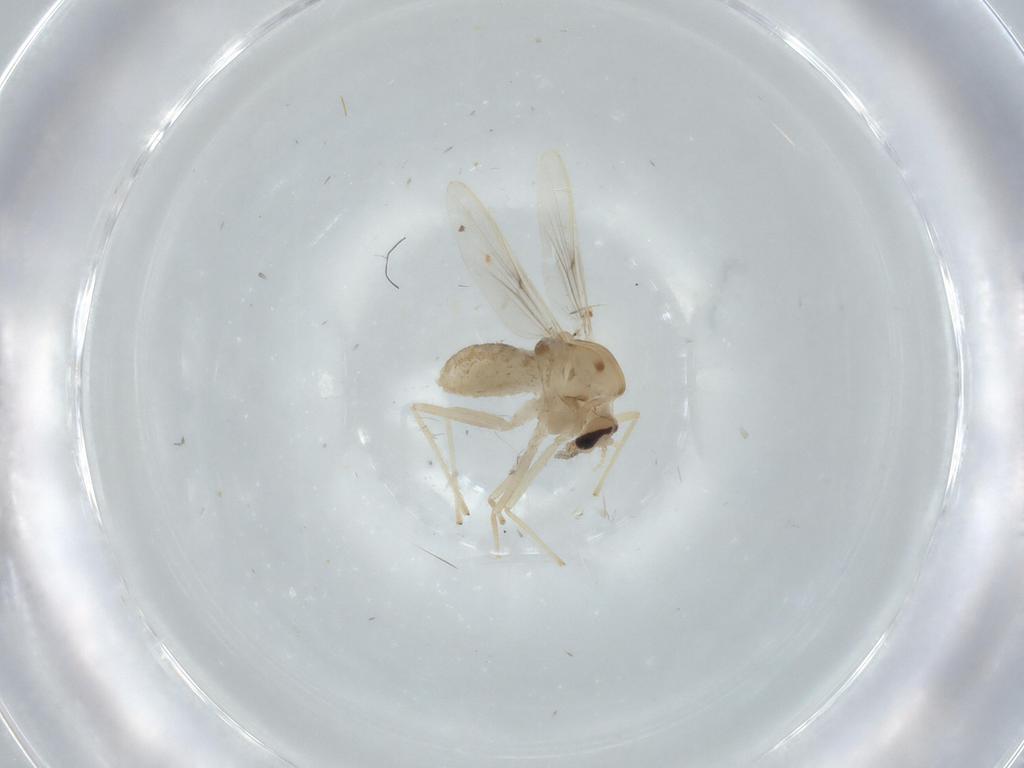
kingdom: Animalia
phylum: Arthropoda
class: Insecta
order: Diptera
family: Chironomidae
